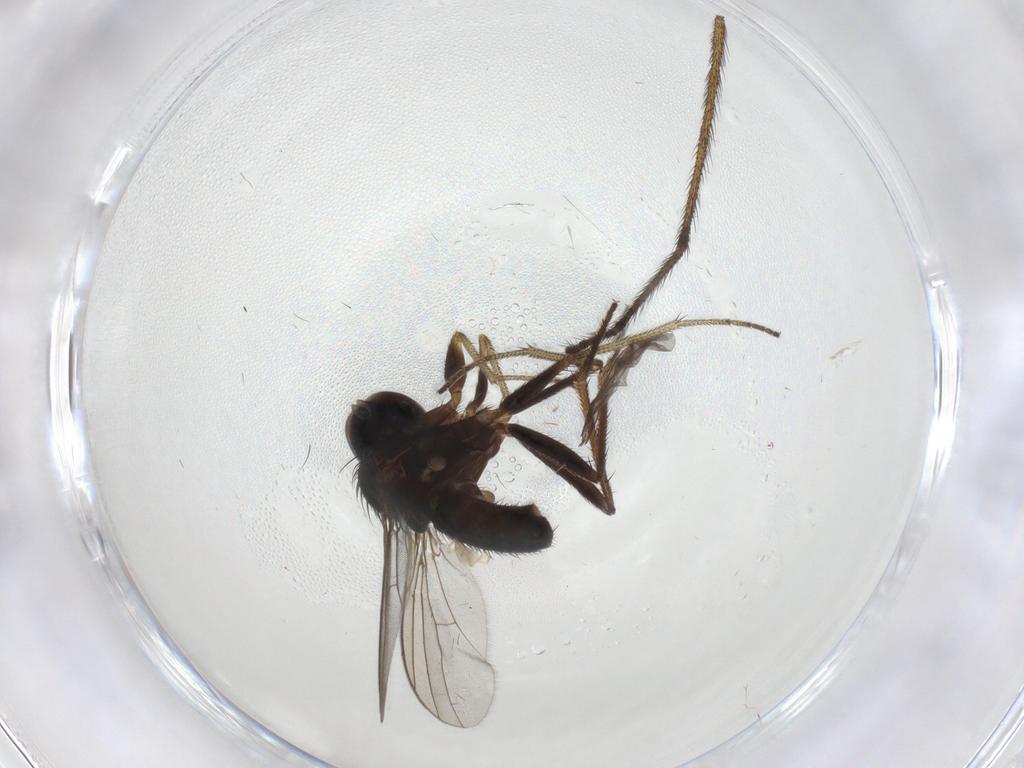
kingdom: Animalia
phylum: Arthropoda
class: Insecta
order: Diptera
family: Limoniidae
